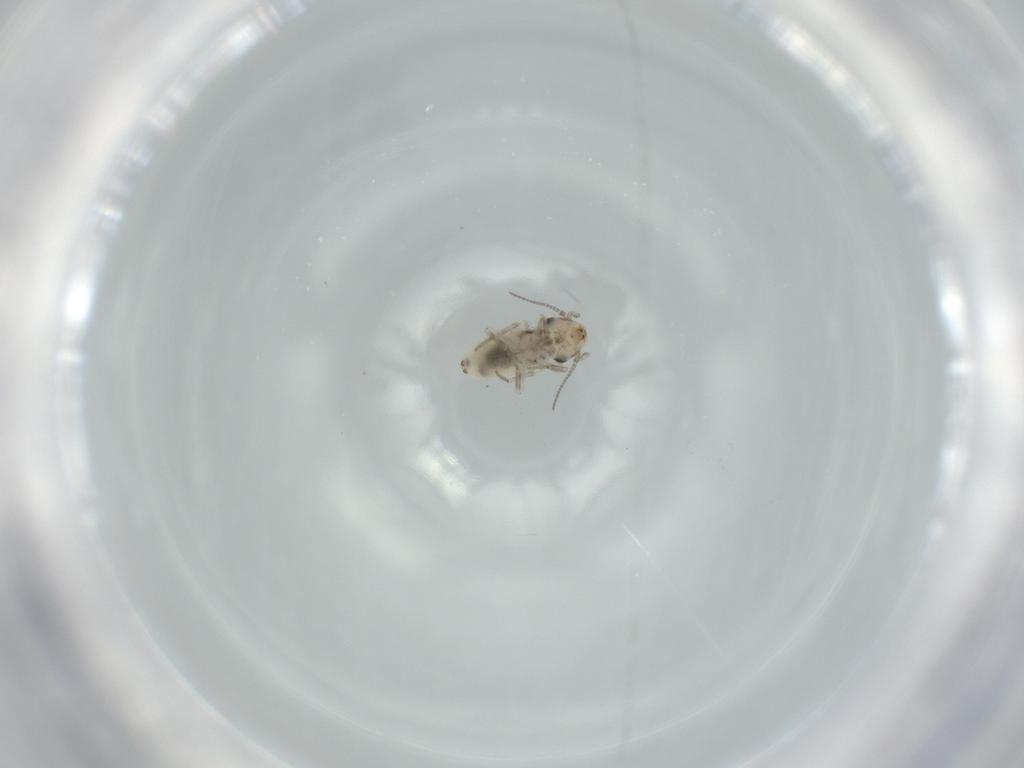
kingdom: Animalia
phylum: Arthropoda
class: Insecta
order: Psocodea
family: Lepidopsocidae
